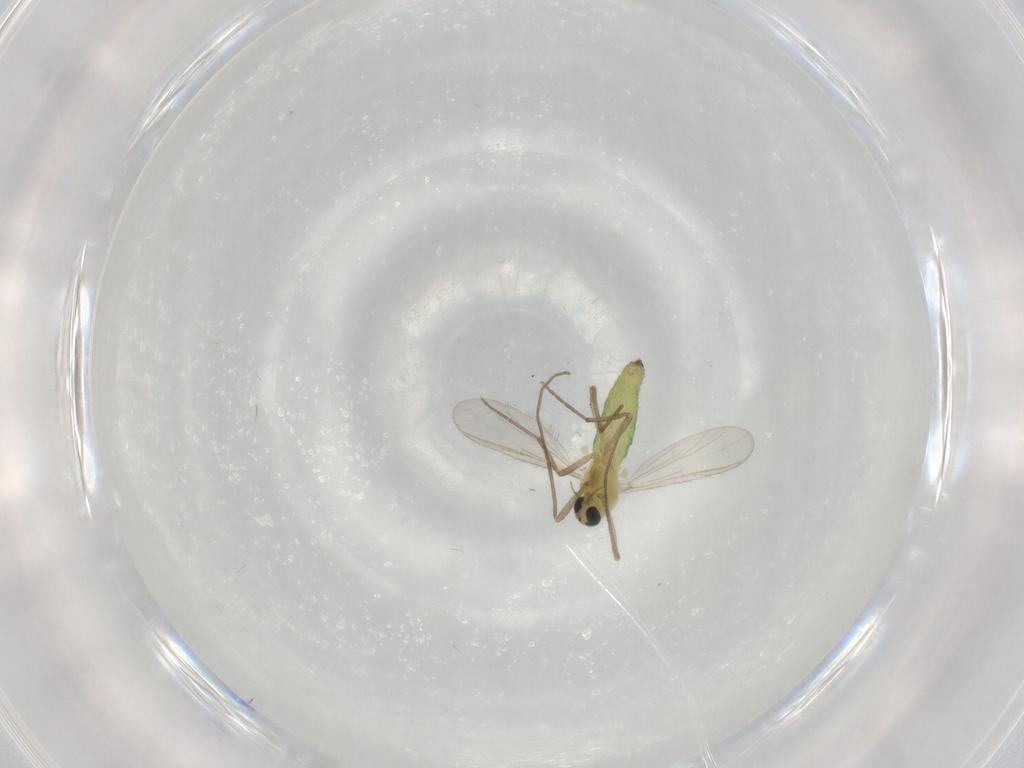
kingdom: Animalia
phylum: Arthropoda
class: Insecta
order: Diptera
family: Chironomidae
